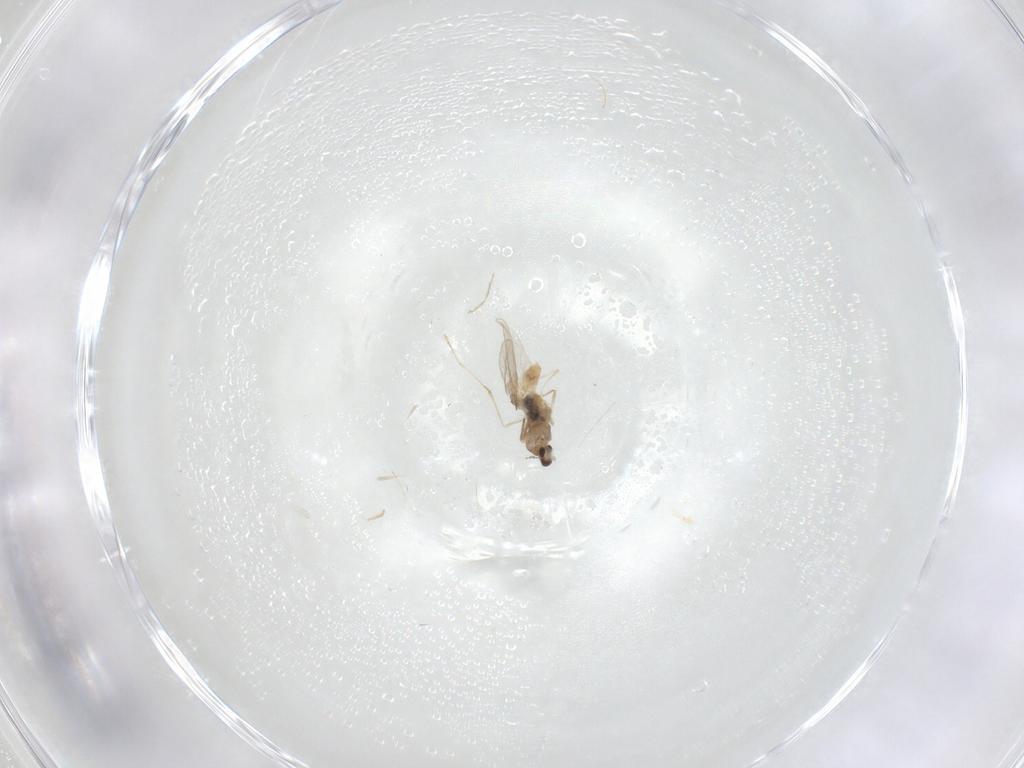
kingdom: Animalia
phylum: Arthropoda
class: Insecta
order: Diptera
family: Cecidomyiidae
